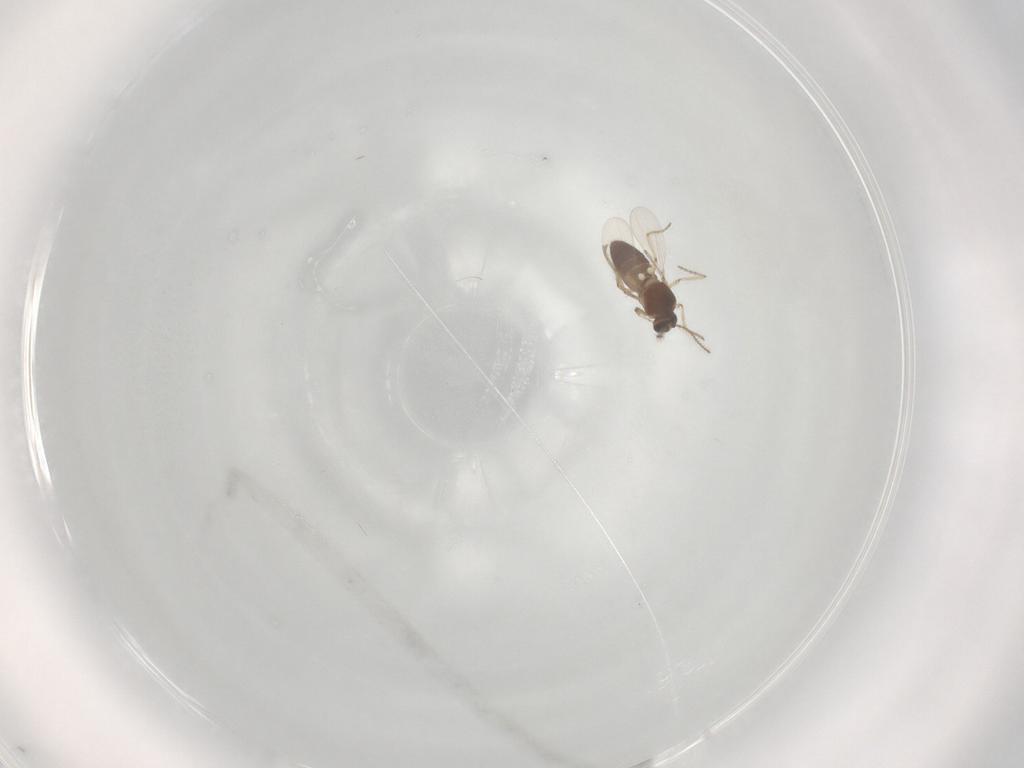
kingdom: Animalia
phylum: Arthropoda
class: Insecta
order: Diptera
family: Ceratopogonidae
